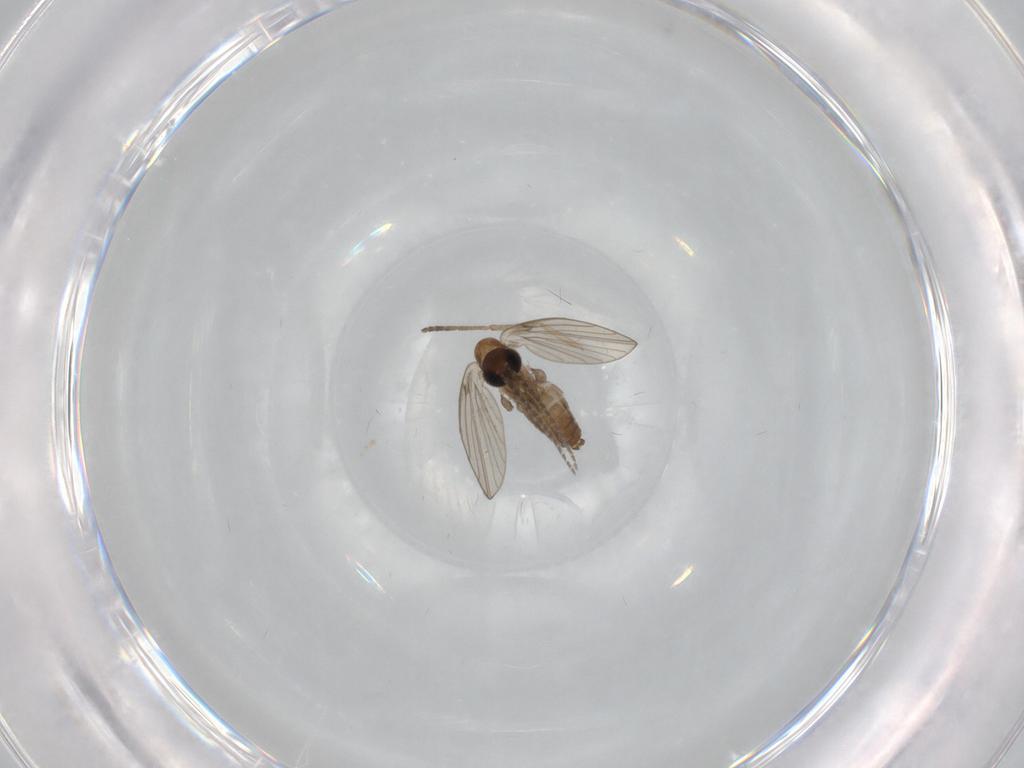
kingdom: Animalia
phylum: Arthropoda
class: Insecta
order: Diptera
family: Psychodidae
